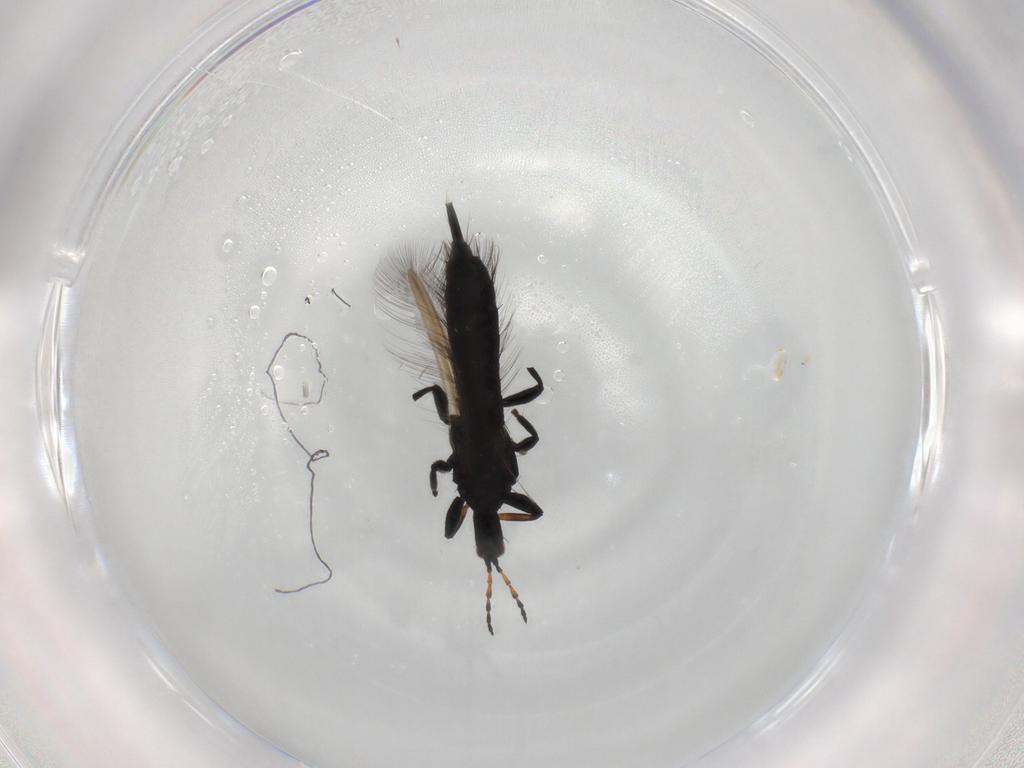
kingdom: Animalia
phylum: Arthropoda
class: Insecta
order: Thysanoptera
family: Phlaeothripidae
